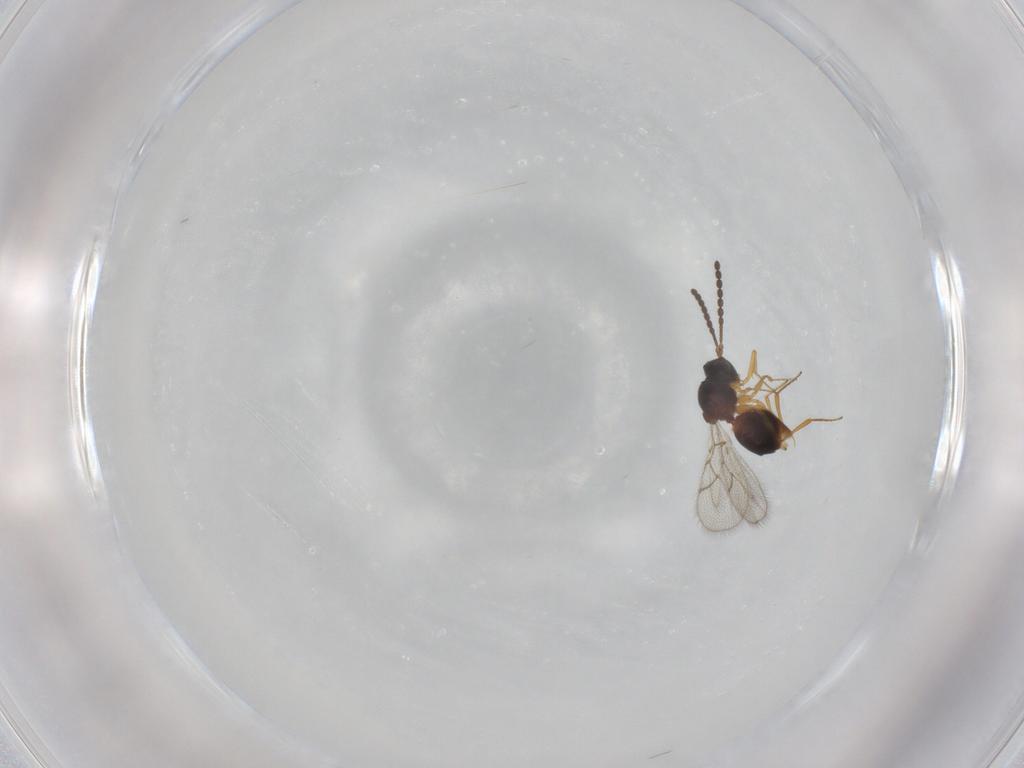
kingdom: Animalia
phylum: Arthropoda
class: Insecta
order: Hymenoptera
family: Figitidae
